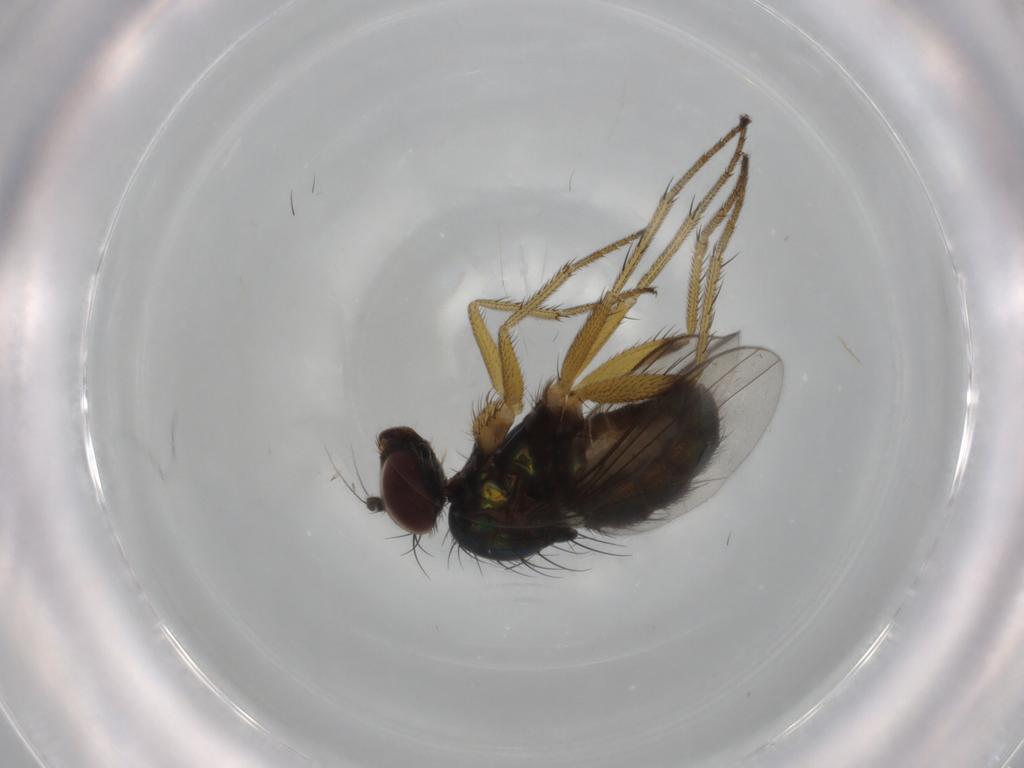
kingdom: Animalia
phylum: Arthropoda
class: Insecta
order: Diptera
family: Dolichopodidae
